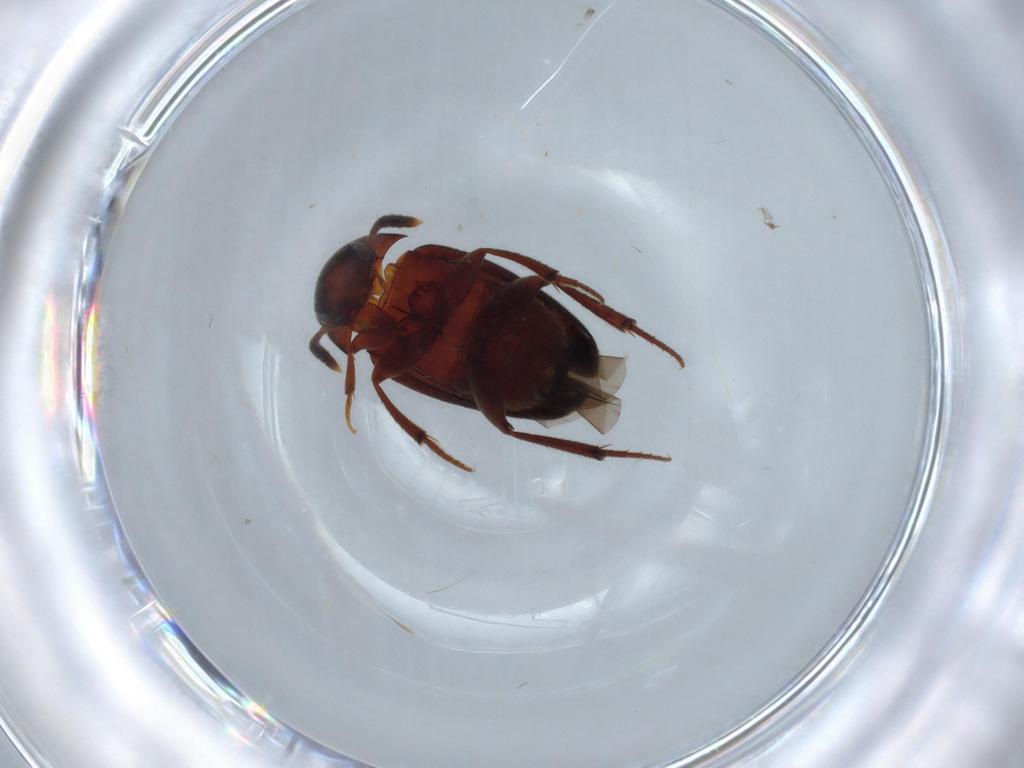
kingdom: Animalia
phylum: Arthropoda
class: Insecta
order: Coleoptera
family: Leiodidae
